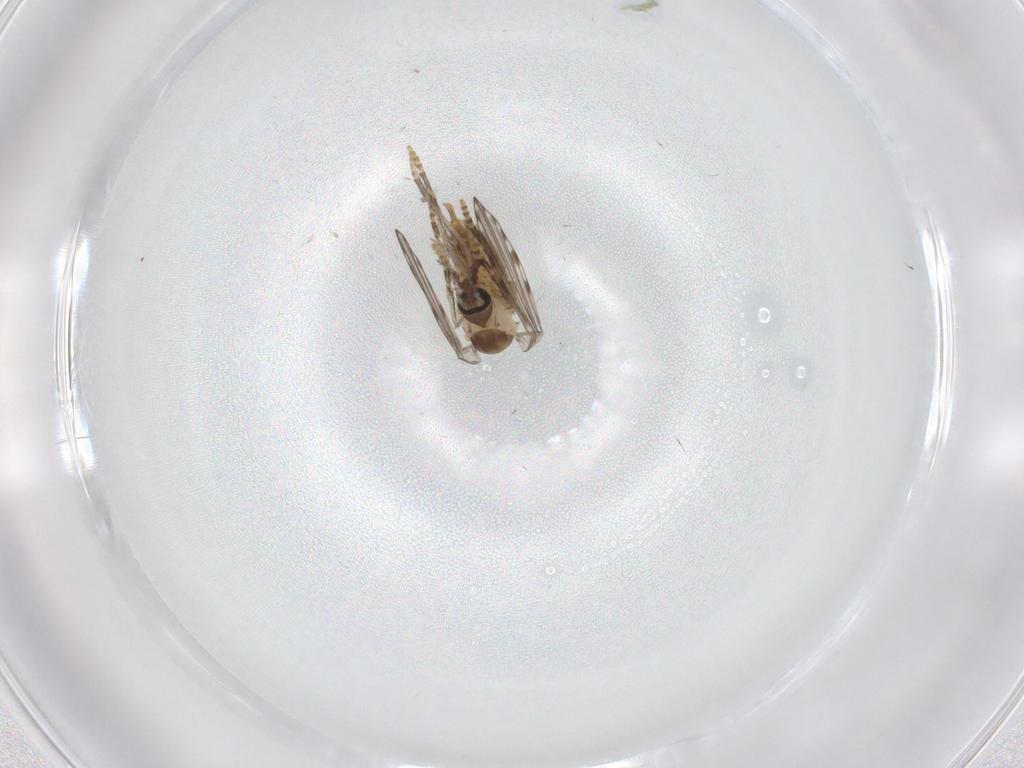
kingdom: Animalia
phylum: Arthropoda
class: Insecta
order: Diptera
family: Psychodidae
